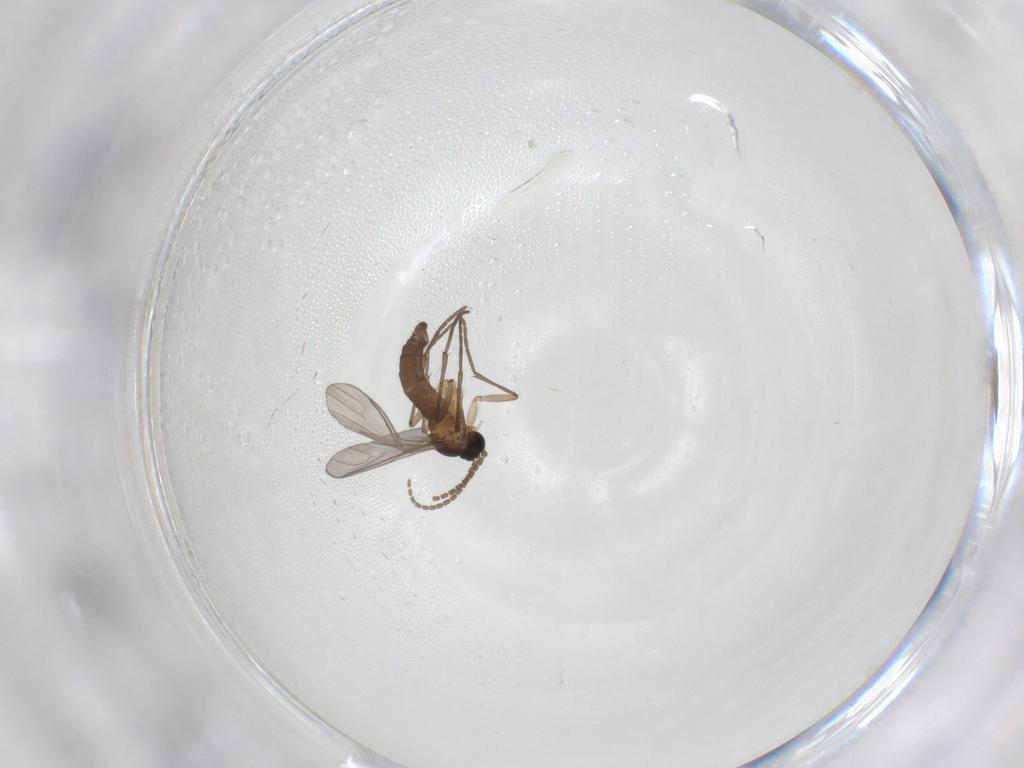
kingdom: Animalia
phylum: Arthropoda
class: Insecta
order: Diptera
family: Sciaridae
